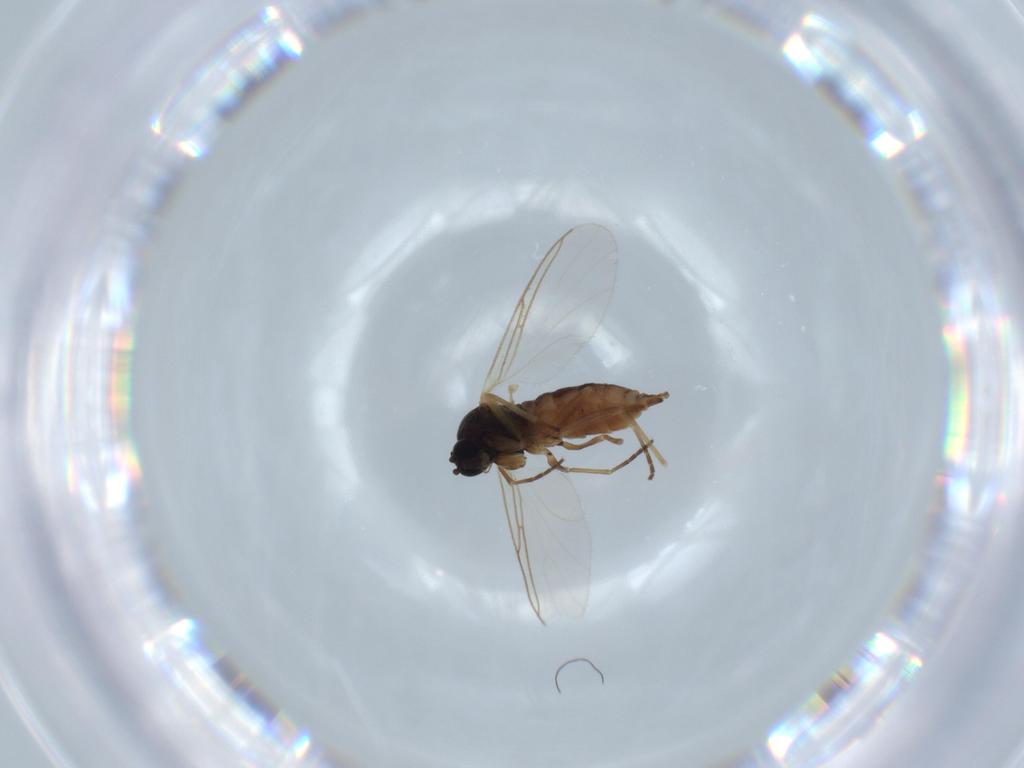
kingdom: Animalia
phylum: Arthropoda
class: Insecta
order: Diptera
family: Sciaridae
